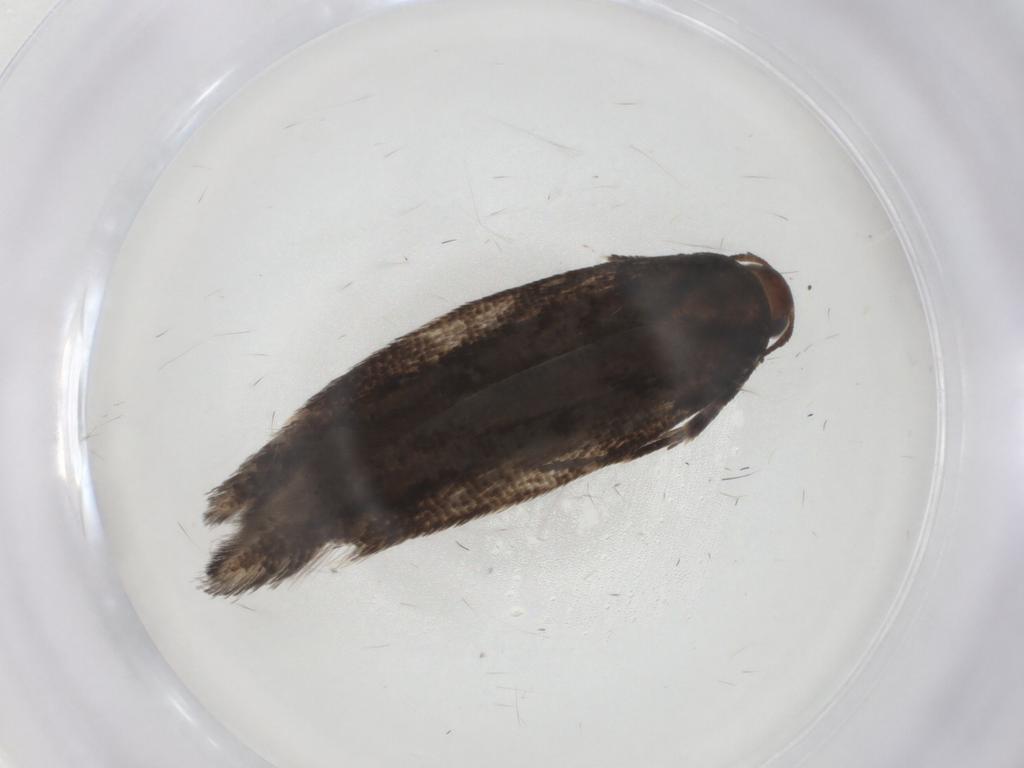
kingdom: Animalia
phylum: Arthropoda
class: Insecta
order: Lepidoptera
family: Gelechiidae
